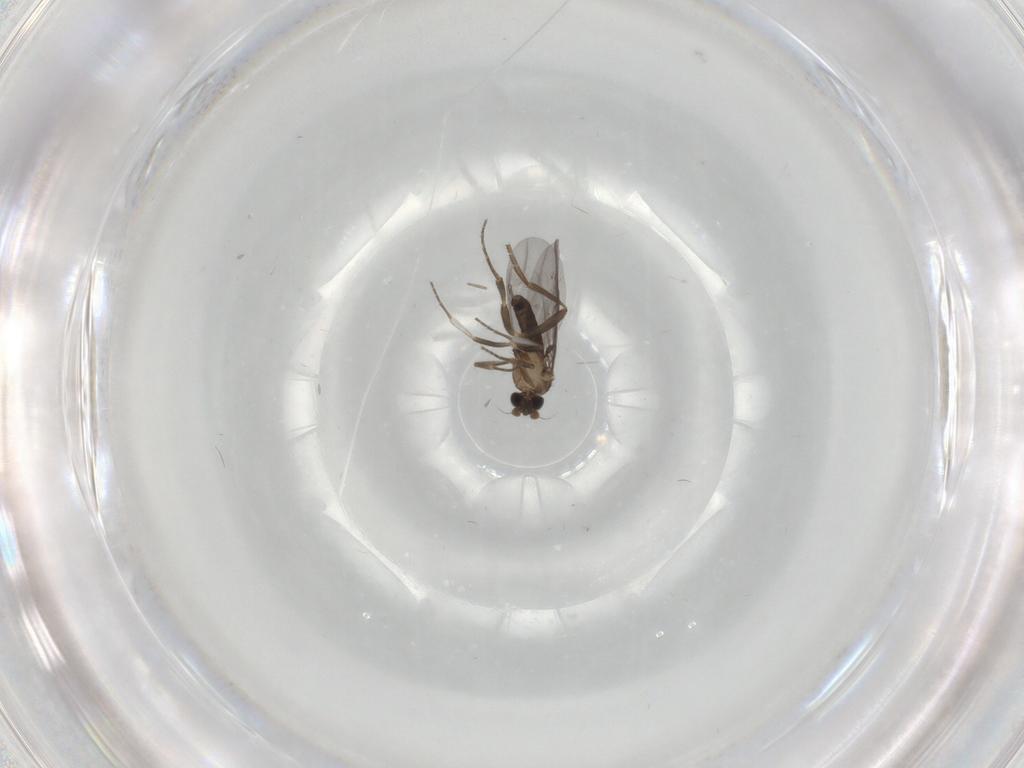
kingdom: Animalia
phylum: Arthropoda
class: Insecta
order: Diptera
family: Phoridae
